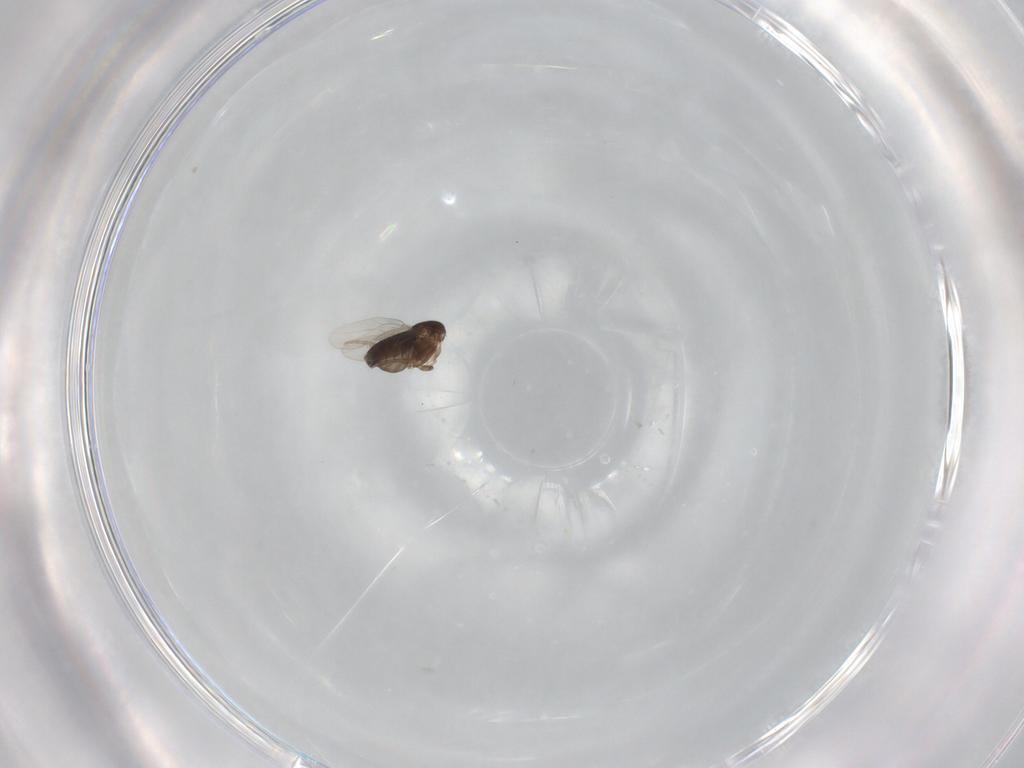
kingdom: Animalia
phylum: Arthropoda
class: Insecta
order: Diptera
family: Phoridae
